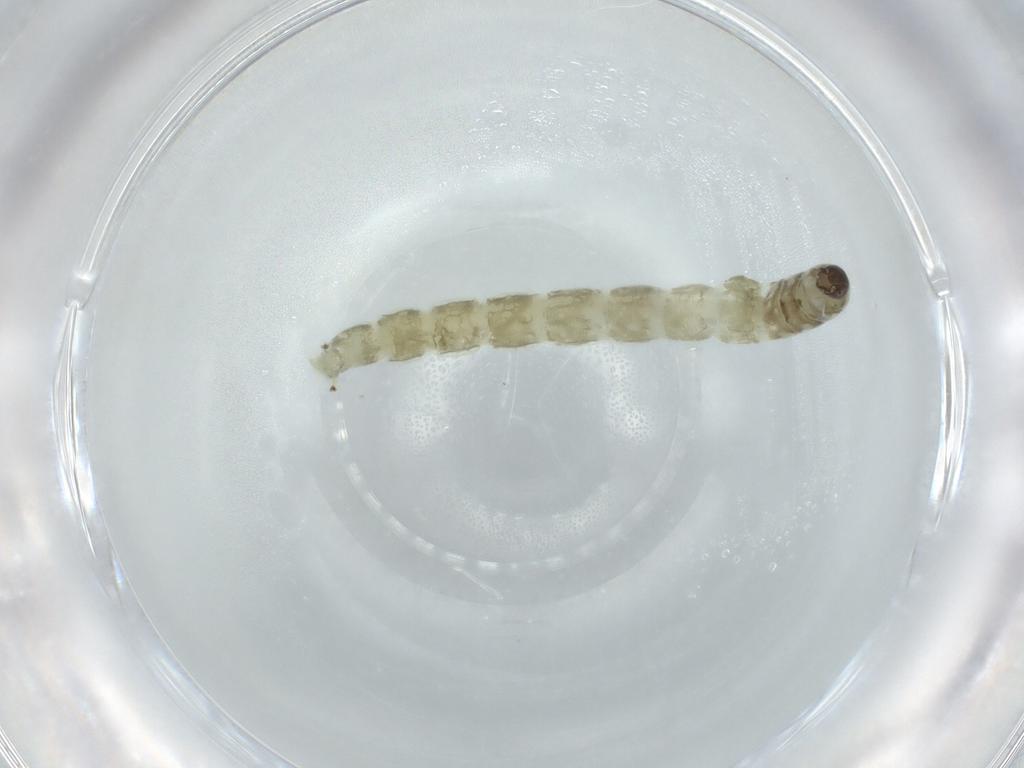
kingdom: Animalia
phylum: Arthropoda
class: Insecta
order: Diptera
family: Chironomidae
